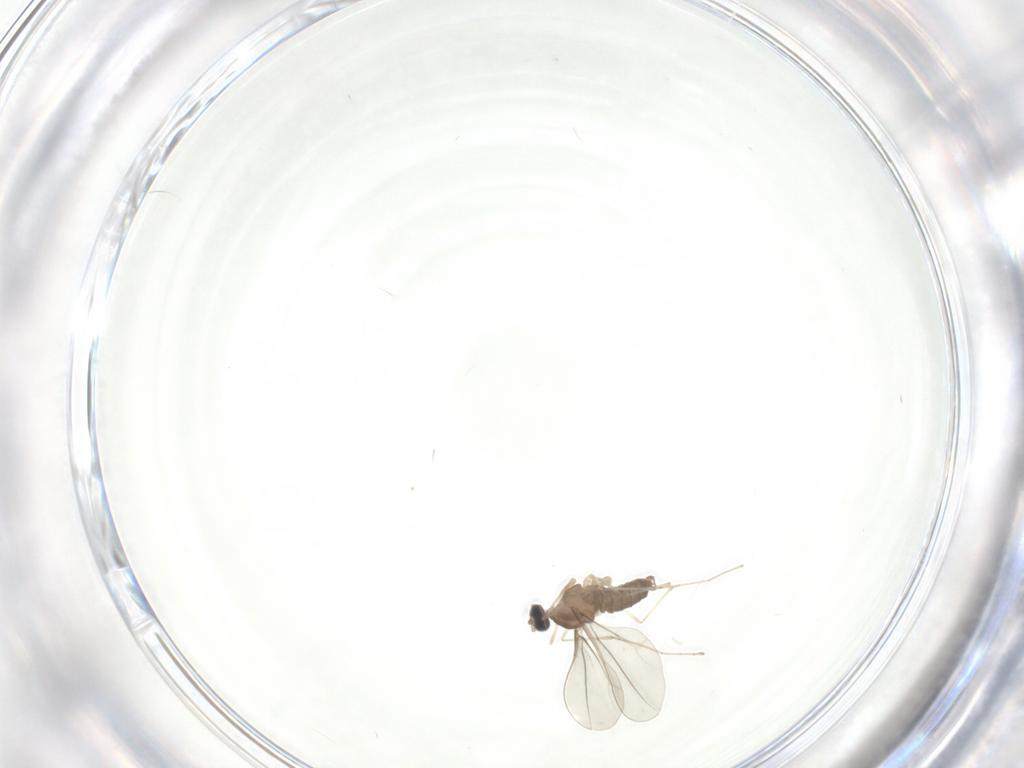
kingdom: Animalia
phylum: Arthropoda
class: Insecta
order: Diptera
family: Cecidomyiidae
